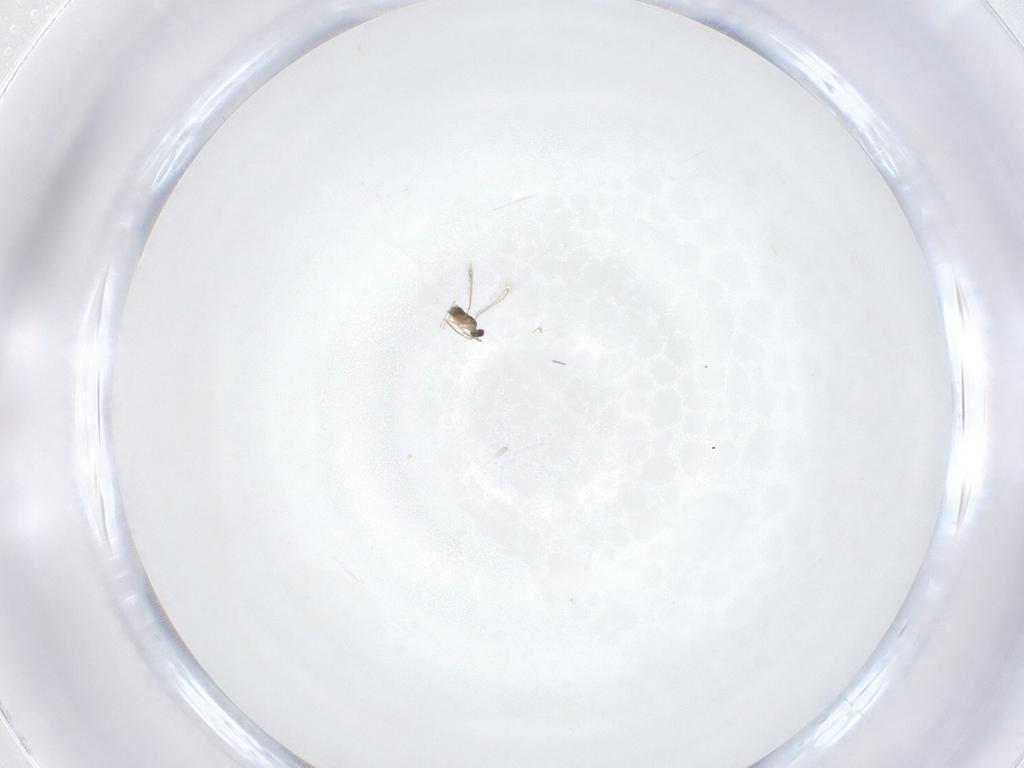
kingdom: Animalia
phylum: Arthropoda
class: Insecta
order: Hymenoptera
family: Mymaridae
